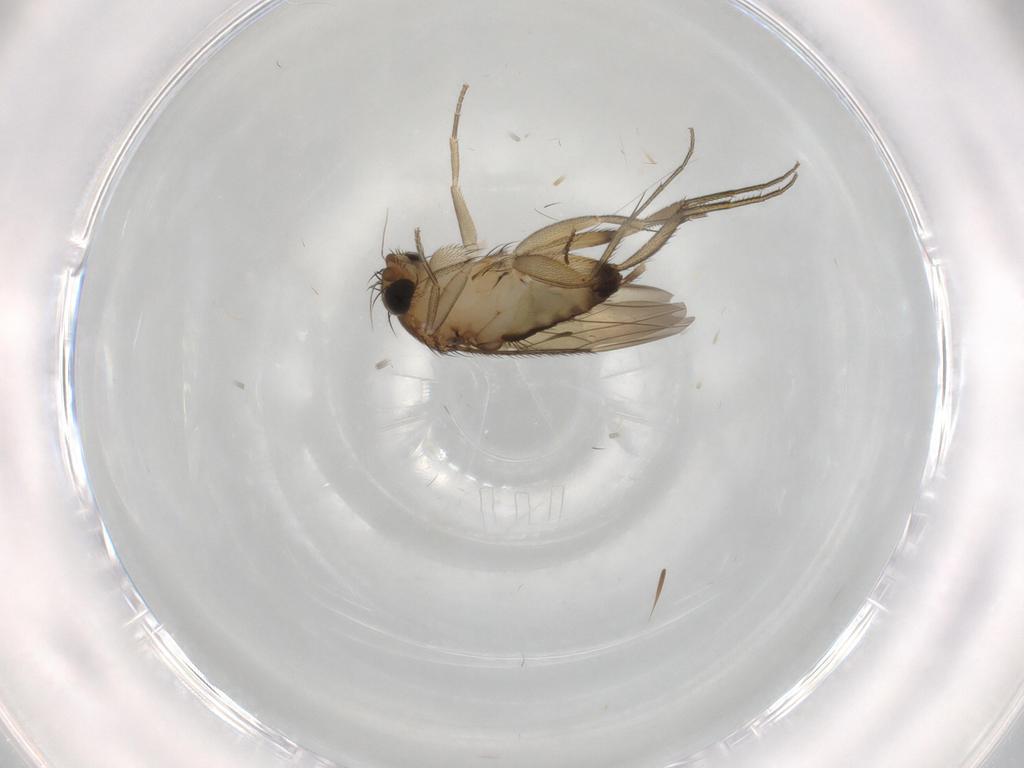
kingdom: Animalia
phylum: Arthropoda
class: Insecta
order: Diptera
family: Phoridae
